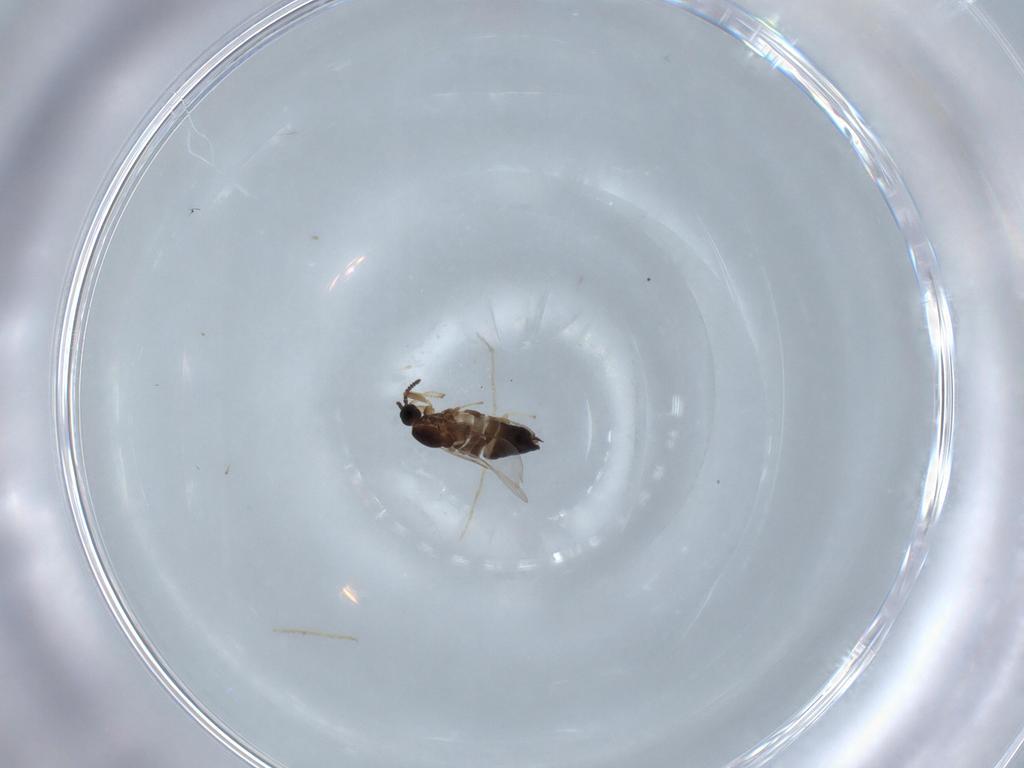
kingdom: Animalia
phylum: Arthropoda
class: Insecta
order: Diptera
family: Scatopsidae
